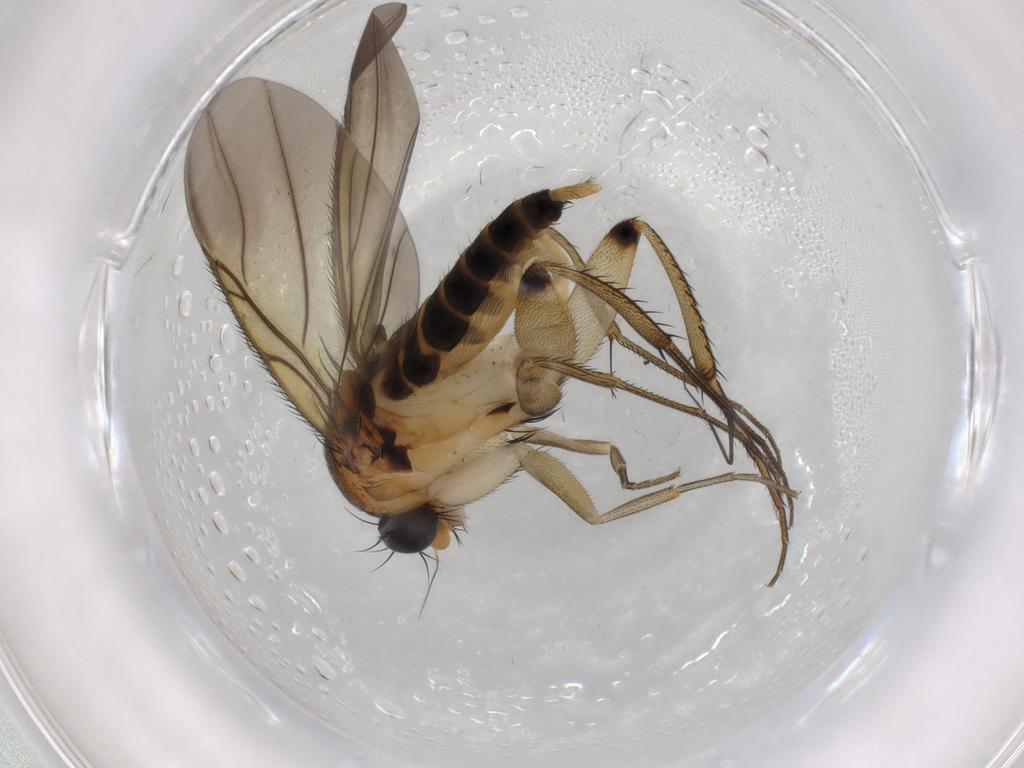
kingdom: Animalia
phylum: Arthropoda
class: Insecta
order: Diptera
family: Phoridae
